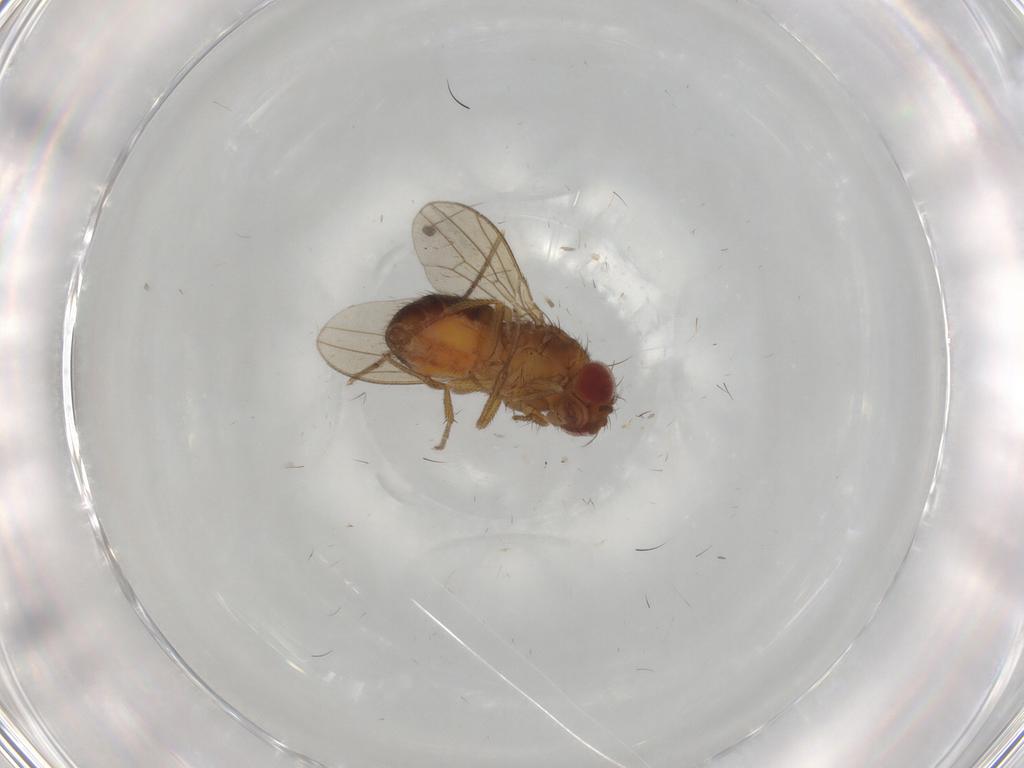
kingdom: Animalia
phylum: Arthropoda
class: Insecta
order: Diptera
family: Drosophilidae
